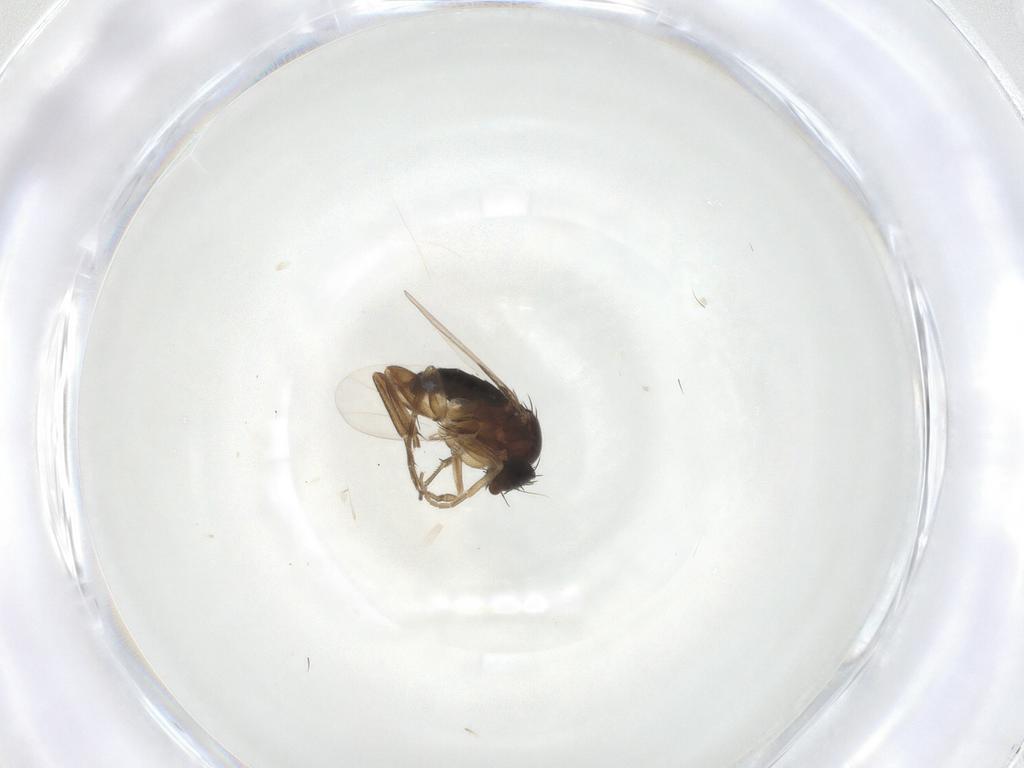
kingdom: Animalia
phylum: Arthropoda
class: Insecta
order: Diptera
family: Phoridae
